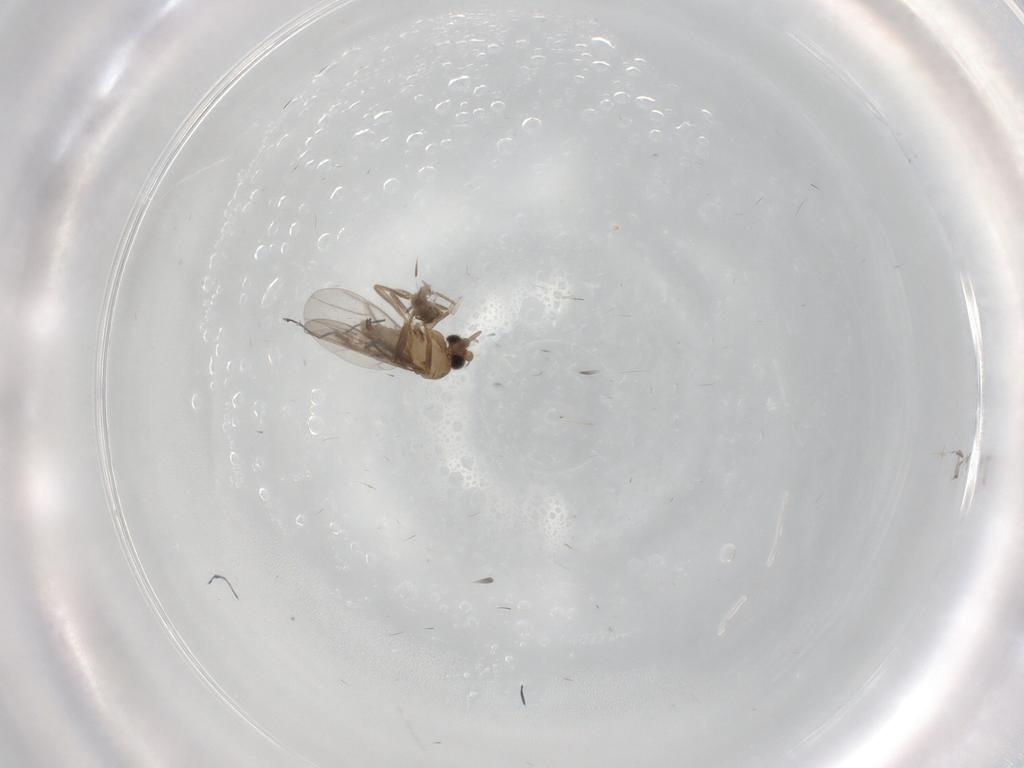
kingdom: Animalia
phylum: Arthropoda
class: Insecta
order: Diptera
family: Ceratopogonidae
